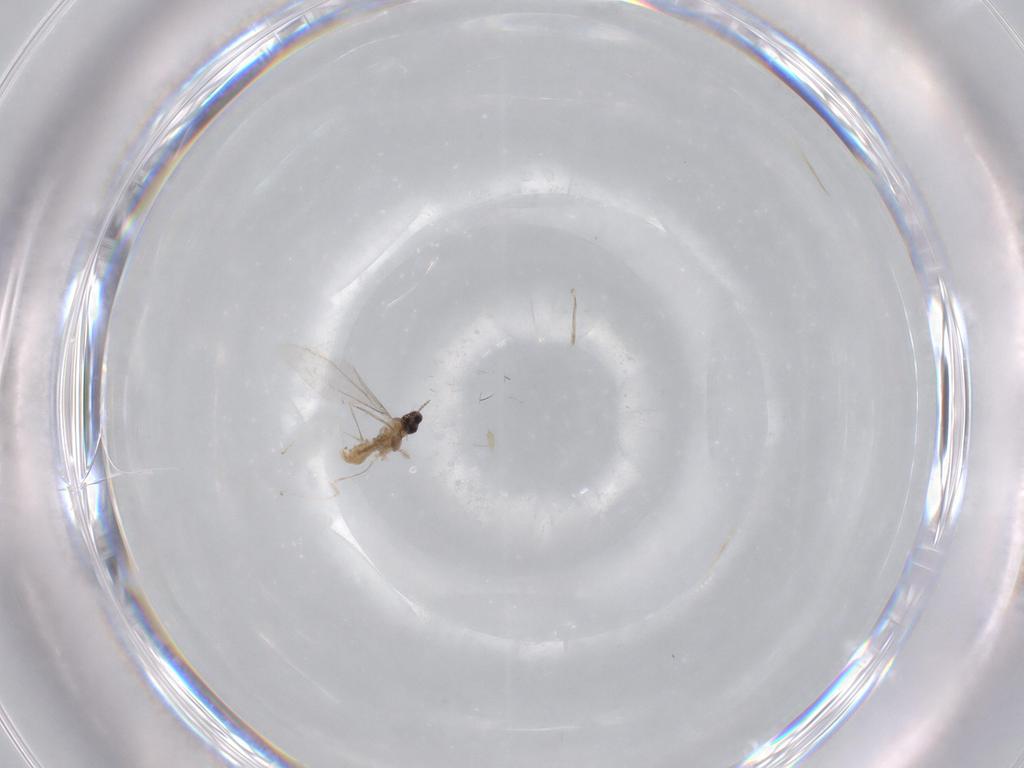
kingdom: Animalia
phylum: Arthropoda
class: Insecta
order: Diptera
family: Cecidomyiidae
